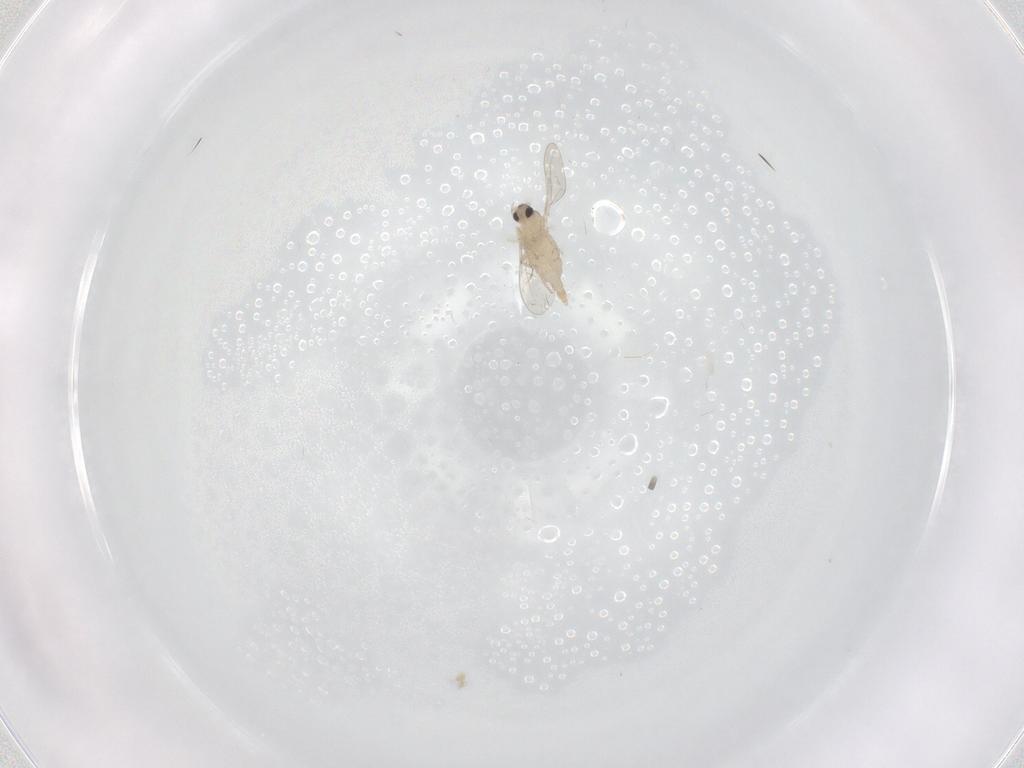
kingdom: Animalia
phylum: Arthropoda
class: Insecta
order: Diptera
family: Cecidomyiidae
